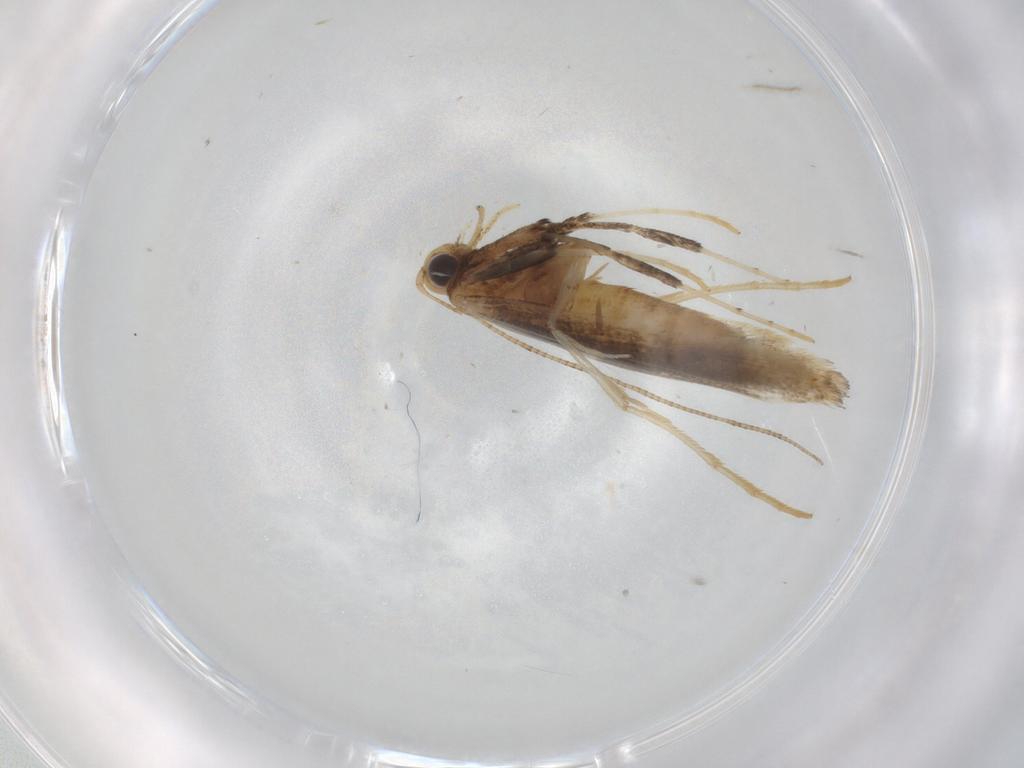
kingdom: Animalia
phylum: Arthropoda
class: Insecta
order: Lepidoptera
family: Gracillariidae
